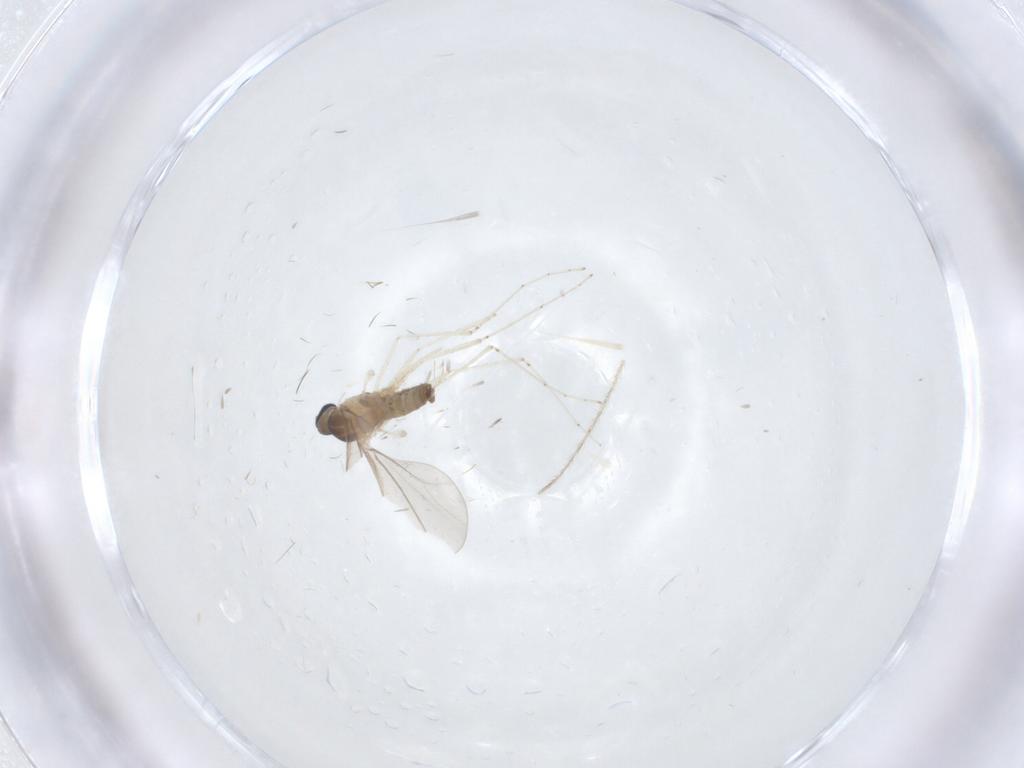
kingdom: Animalia
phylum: Arthropoda
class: Insecta
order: Diptera
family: Cecidomyiidae
